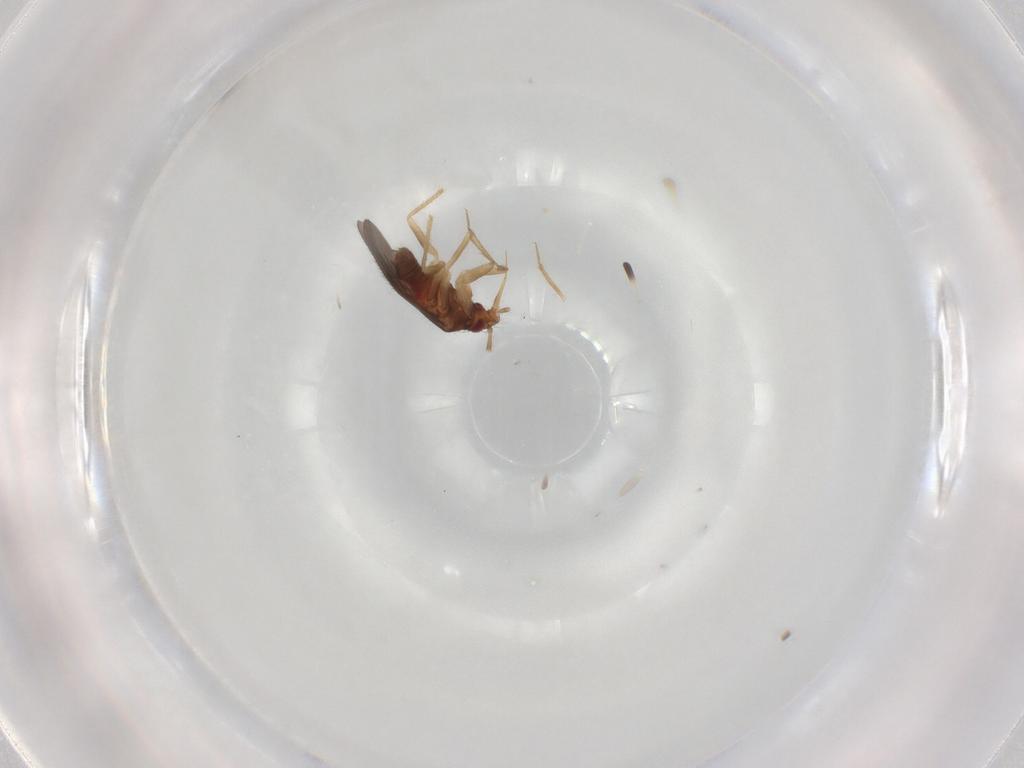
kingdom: Animalia
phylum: Arthropoda
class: Insecta
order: Hemiptera
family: Ceratocombidae
